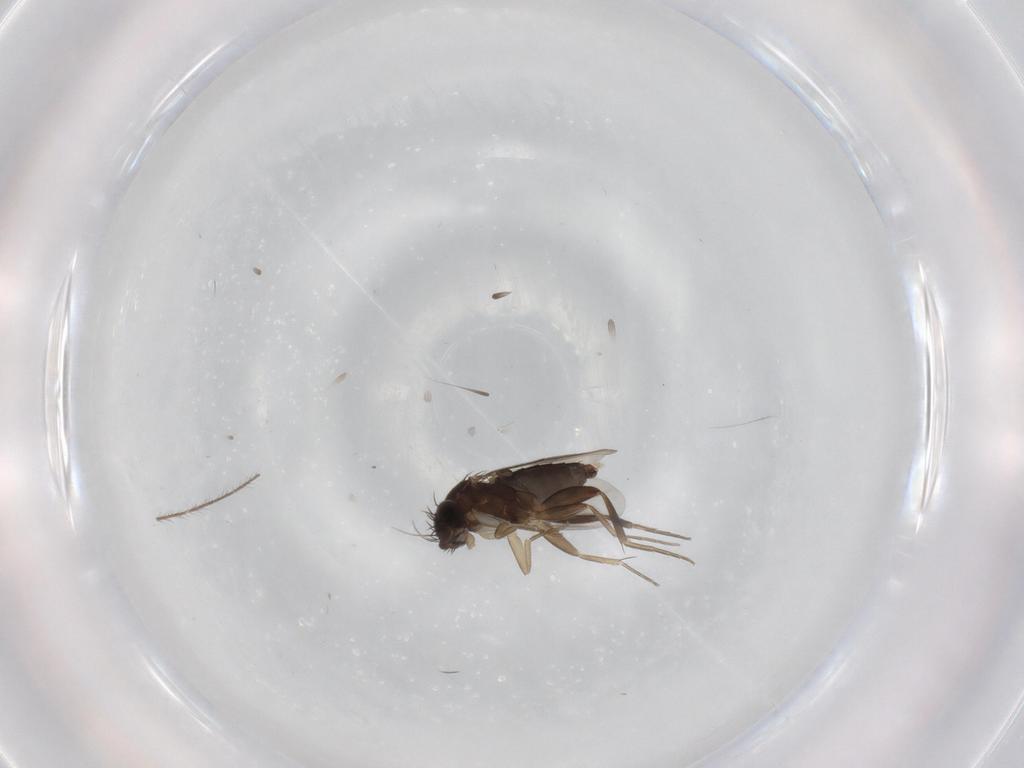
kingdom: Animalia
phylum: Arthropoda
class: Insecta
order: Diptera
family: Phoridae
